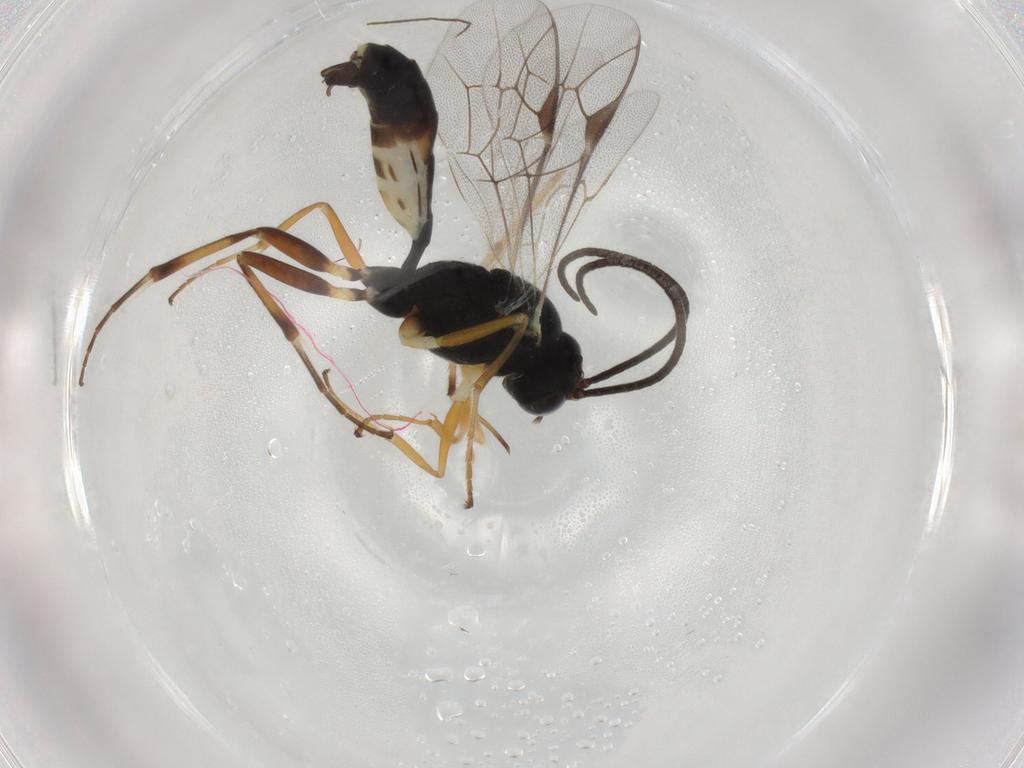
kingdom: Animalia
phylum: Arthropoda
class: Insecta
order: Hymenoptera
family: Ichneumonidae
